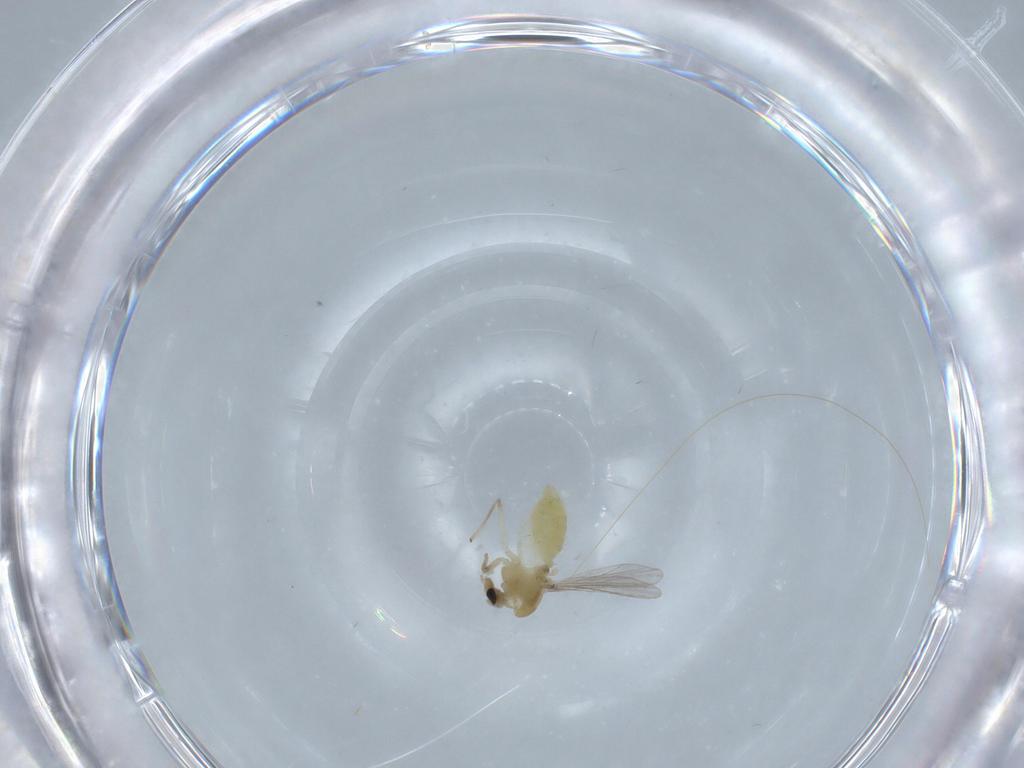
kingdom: Animalia
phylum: Arthropoda
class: Insecta
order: Diptera
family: Chironomidae
